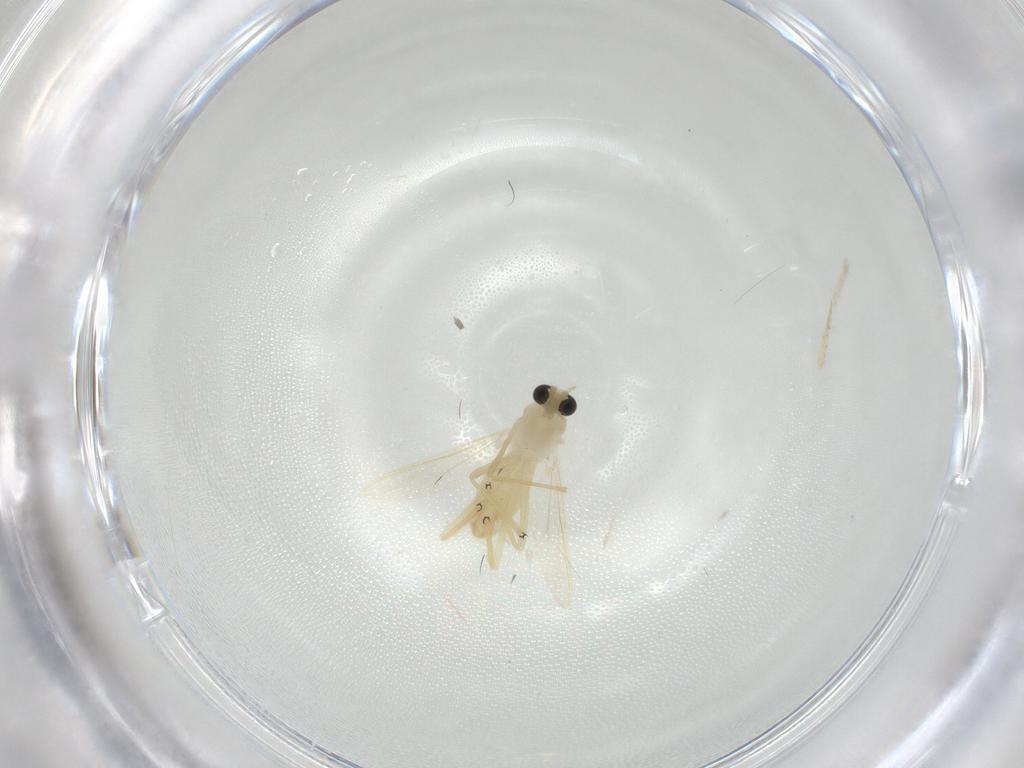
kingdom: Animalia
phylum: Arthropoda
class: Insecta
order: Diptera
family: Chironomidae
